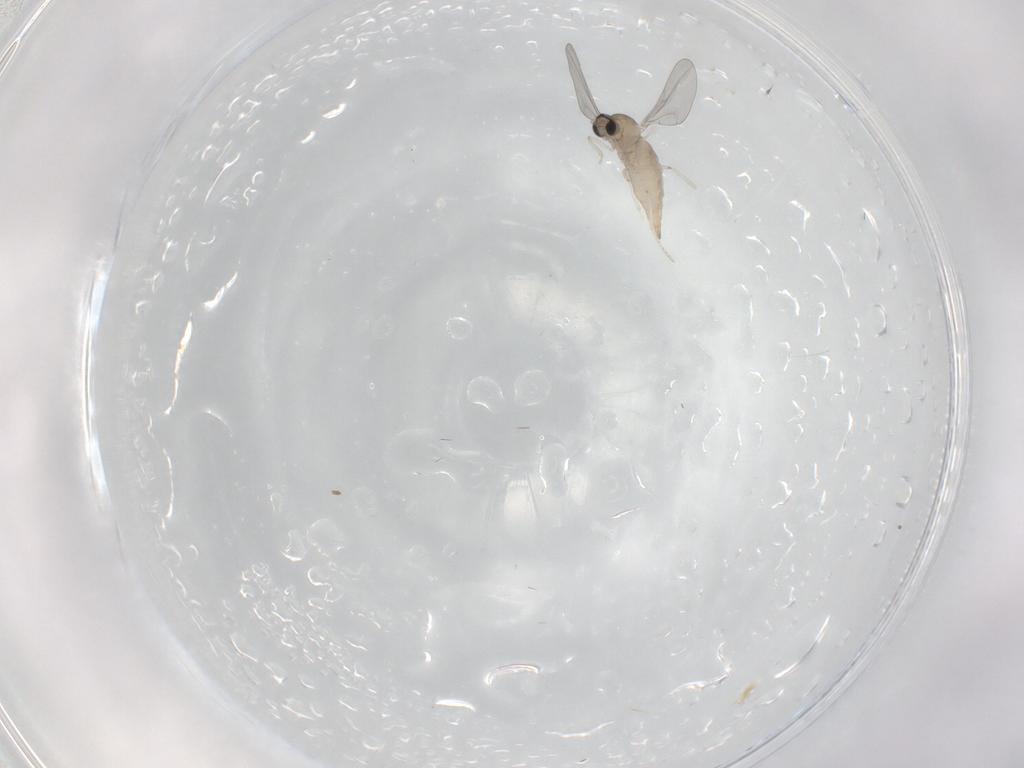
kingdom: Animalia
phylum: Arthropoda
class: Insecta
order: Diptera
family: Cecidomyiidae
